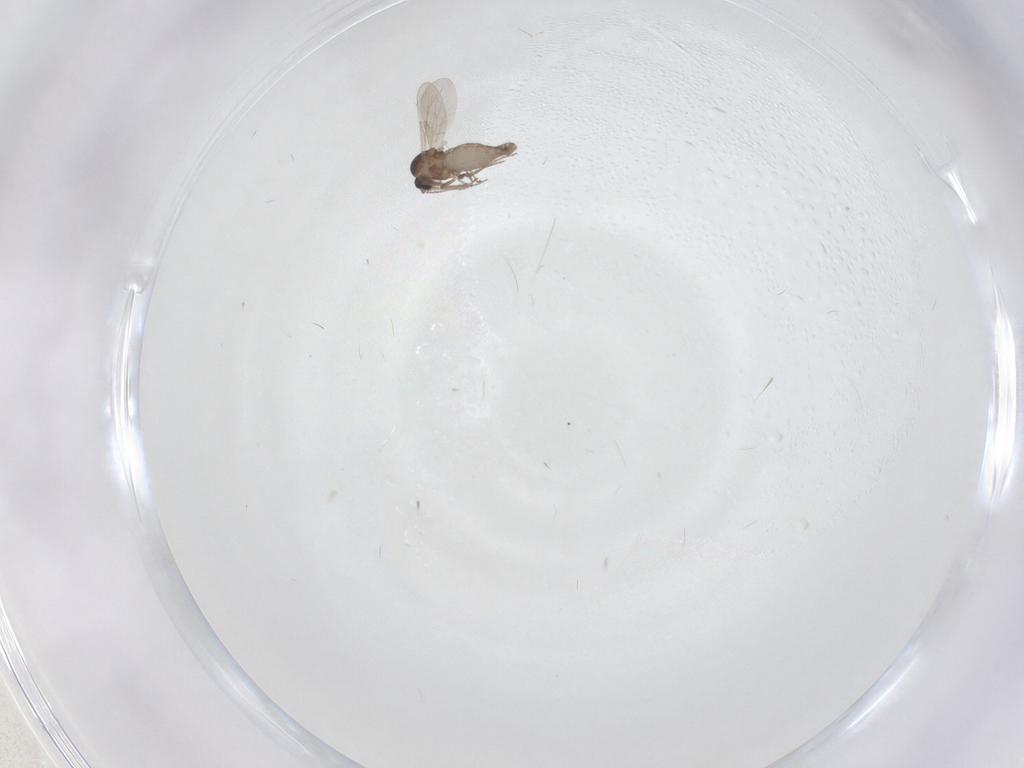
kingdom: Animalia
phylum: Arthropoda
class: Insecta
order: Diptera
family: Chironomidae
